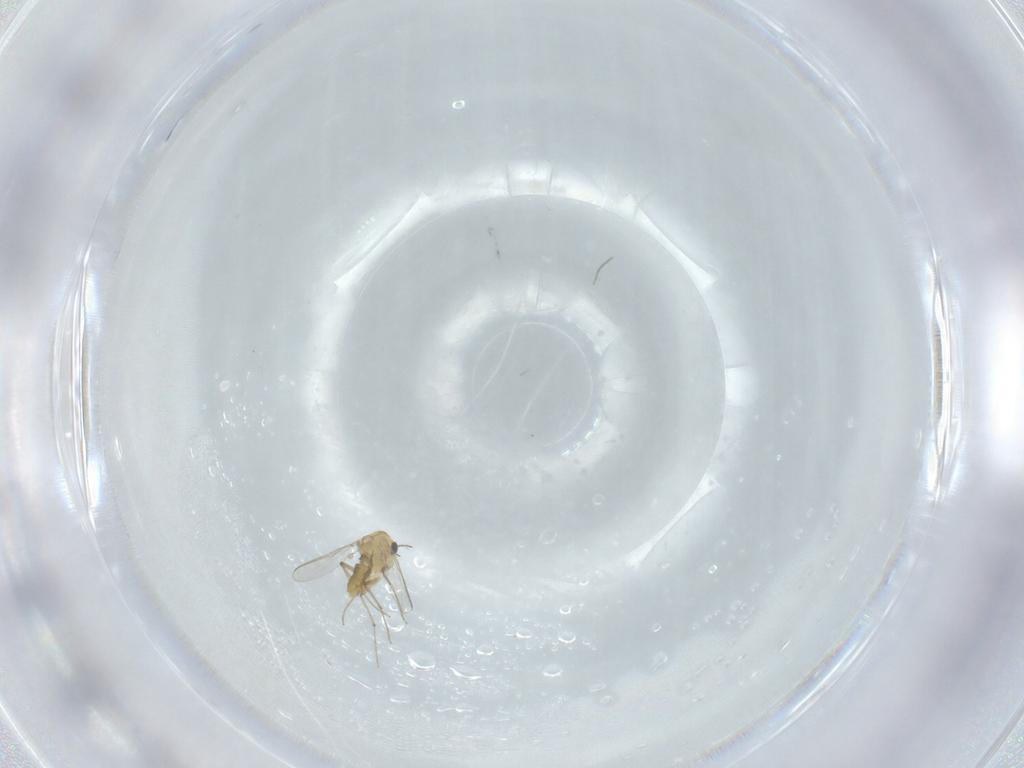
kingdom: Animalia
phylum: Arthropoda
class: Insecta
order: Diptera
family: Chironomidae
